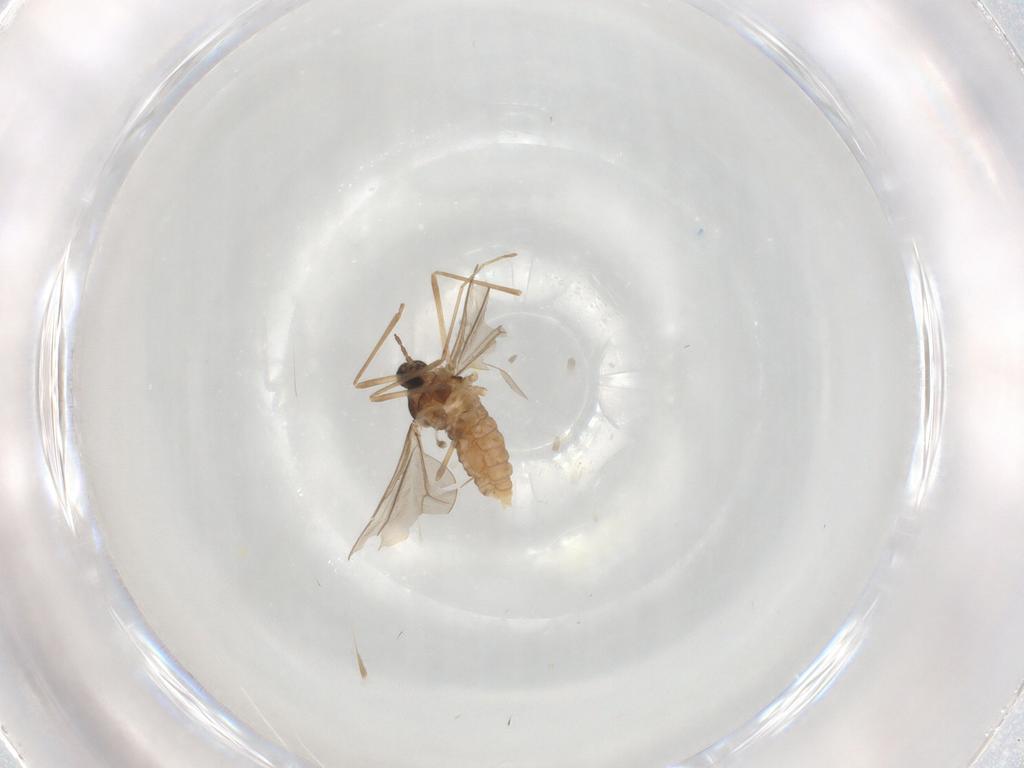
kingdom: Animalia
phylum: Arthropoda
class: Insecta
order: Diptera
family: Cecidomyiidae
